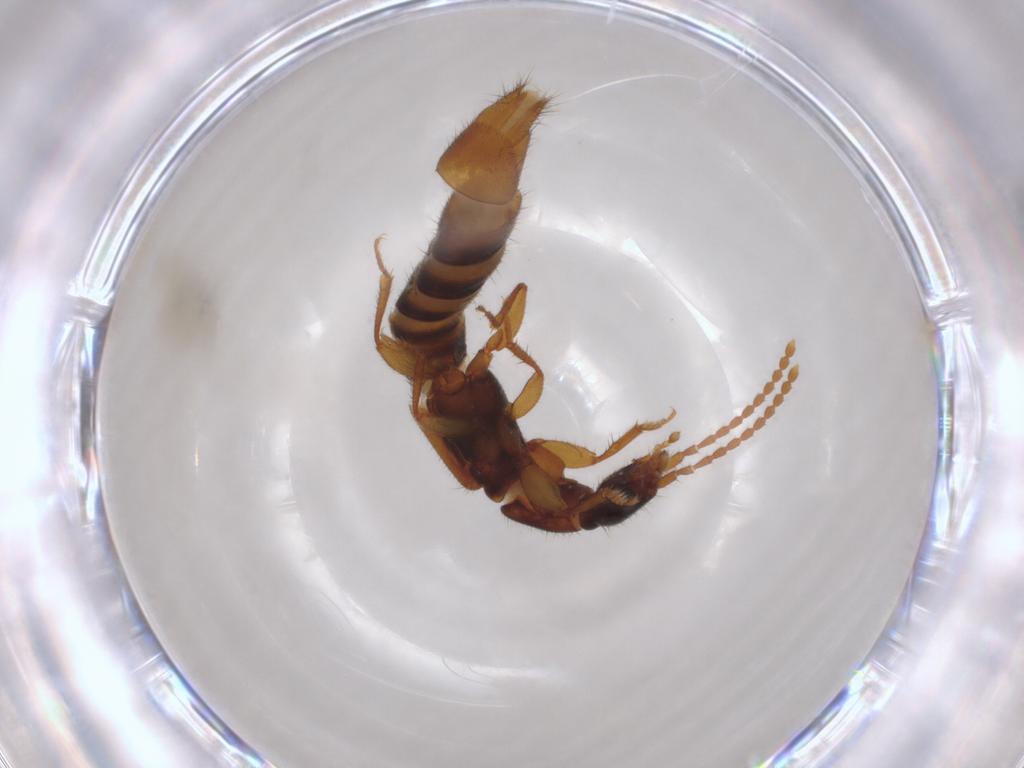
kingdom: Animalia
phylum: Arthropoda
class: Insecta
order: Coleoptera
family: Staphylinidae
